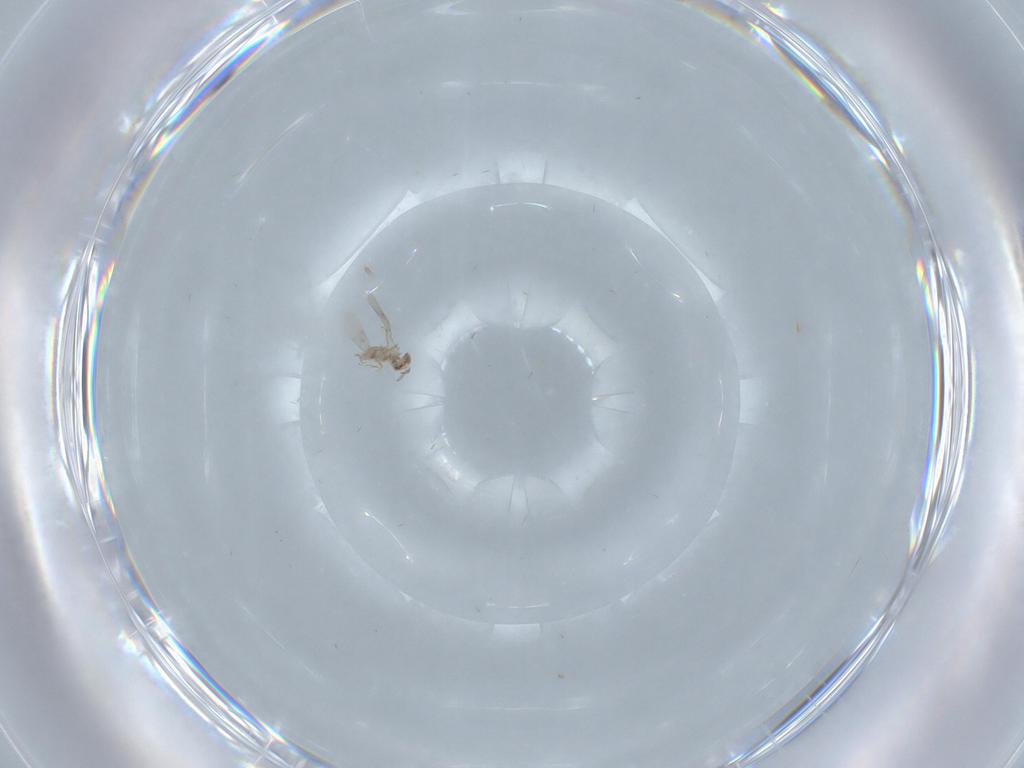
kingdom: Animalia
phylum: Arthropoda
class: Insecta
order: Hymenoptera
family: Aphelinidae
